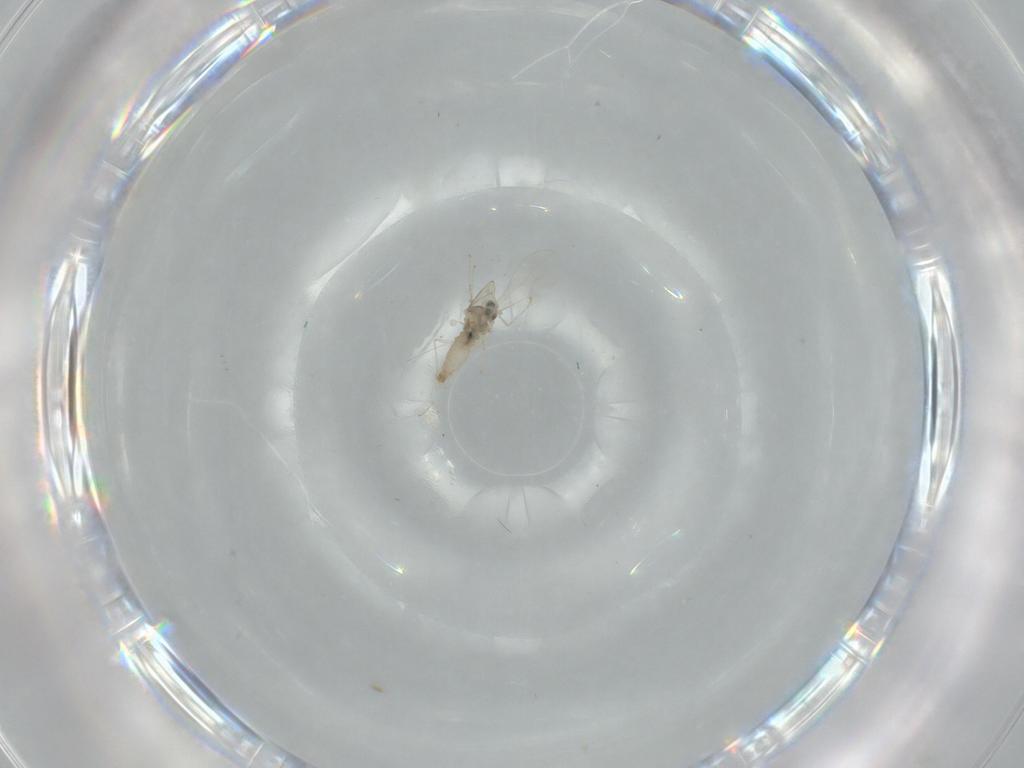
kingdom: Animalia
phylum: Arthropoda
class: Insecta
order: Diptera
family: Cecidomyiidae
